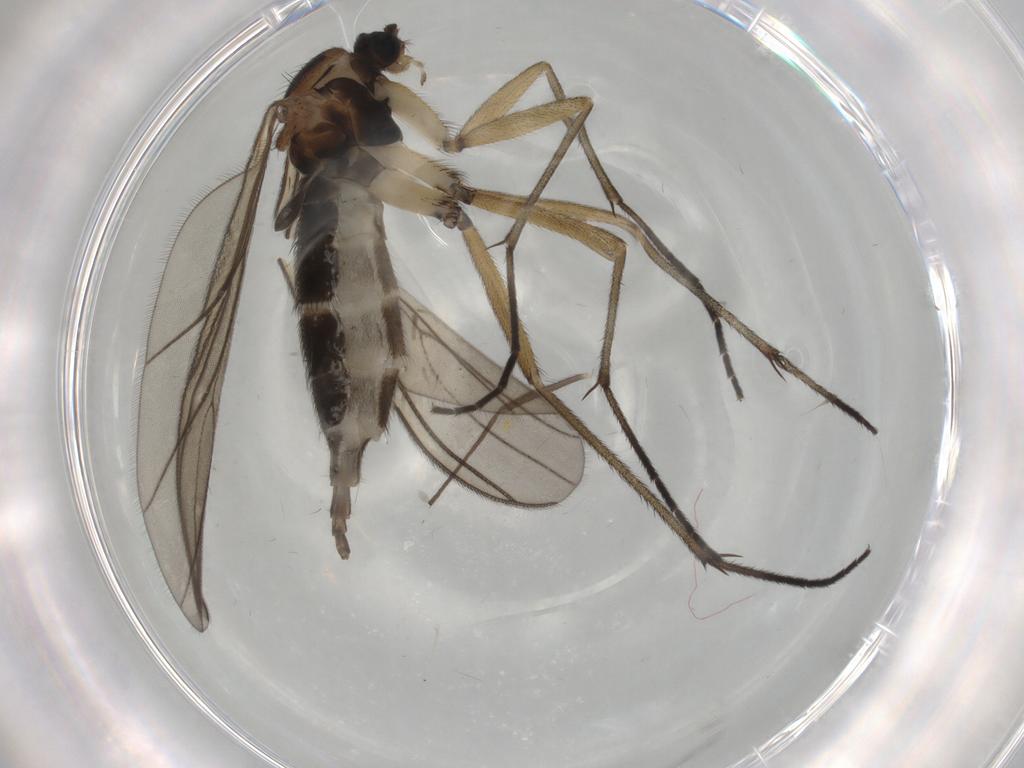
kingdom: Animalia
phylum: Arthropoda
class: Insecta
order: Diptera
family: Sciaridae
